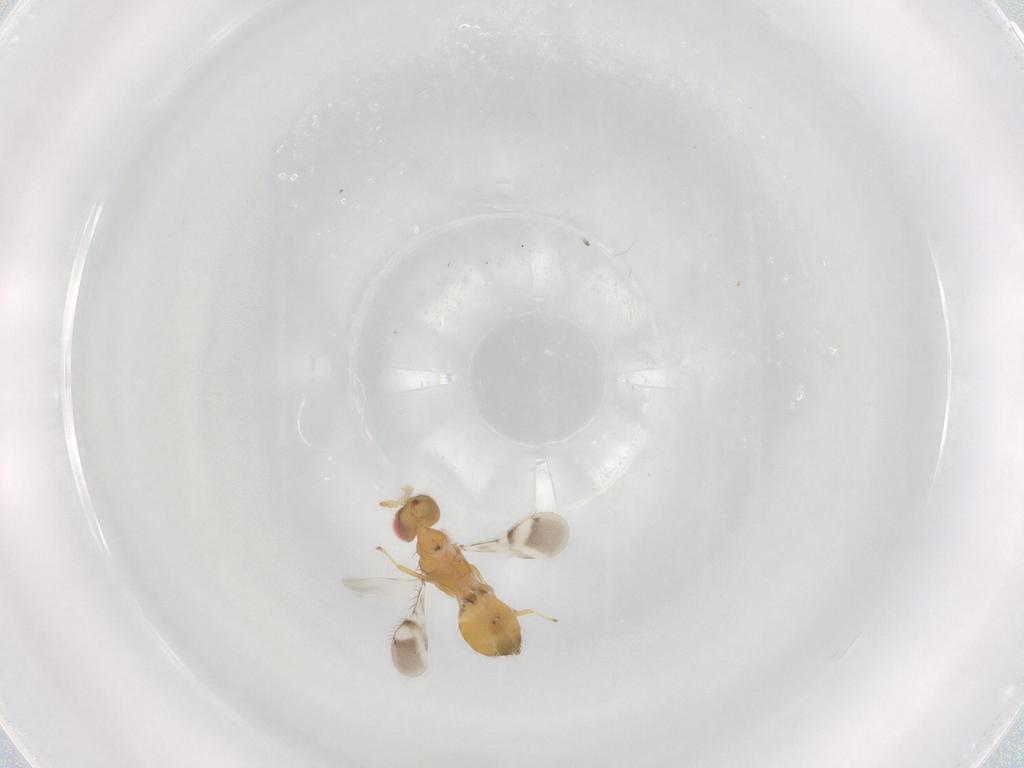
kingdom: Animalia
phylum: Arthropoda
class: Insecta
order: Hymenoptera
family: Eulophidae
